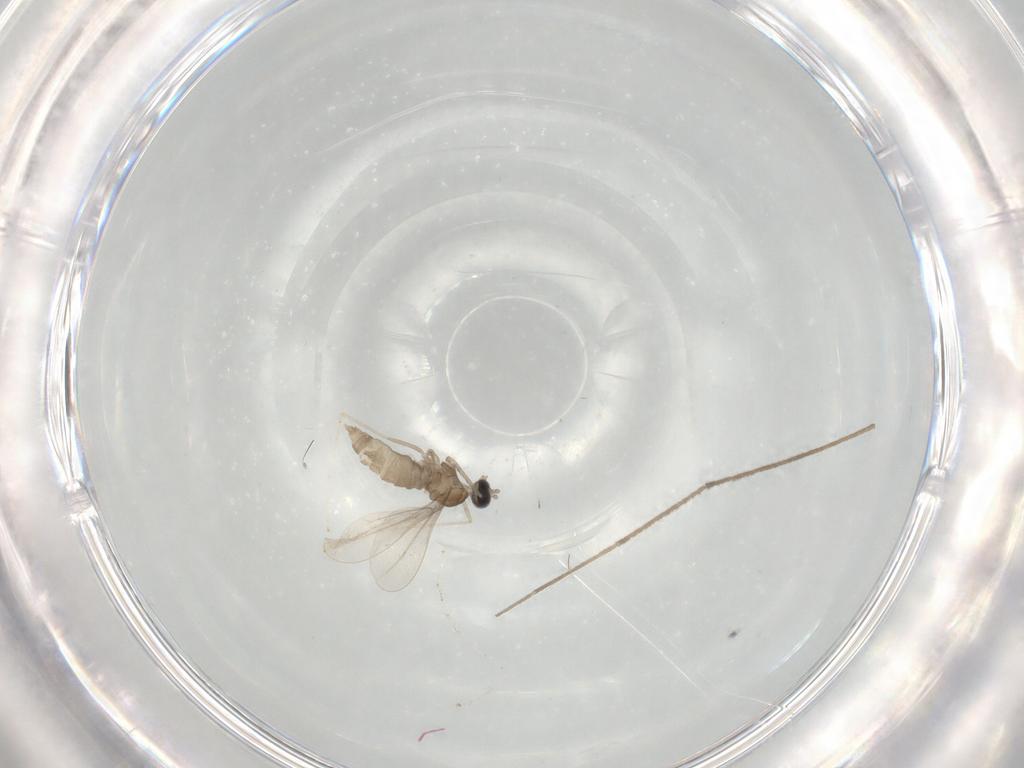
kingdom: Animalia
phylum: Arthropoda
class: Insecta
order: Diptera
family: Cecidomyiidae
